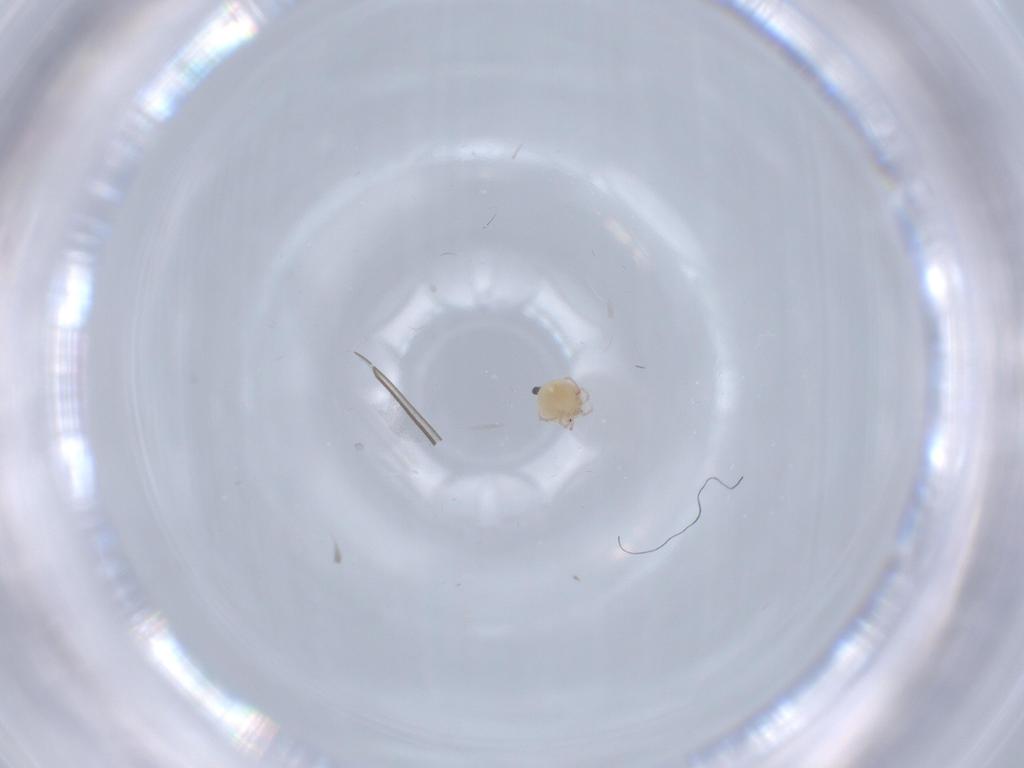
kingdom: Animalia
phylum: Arthropoda
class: Arachnida
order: Trombidiformes
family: Lebertiidae
